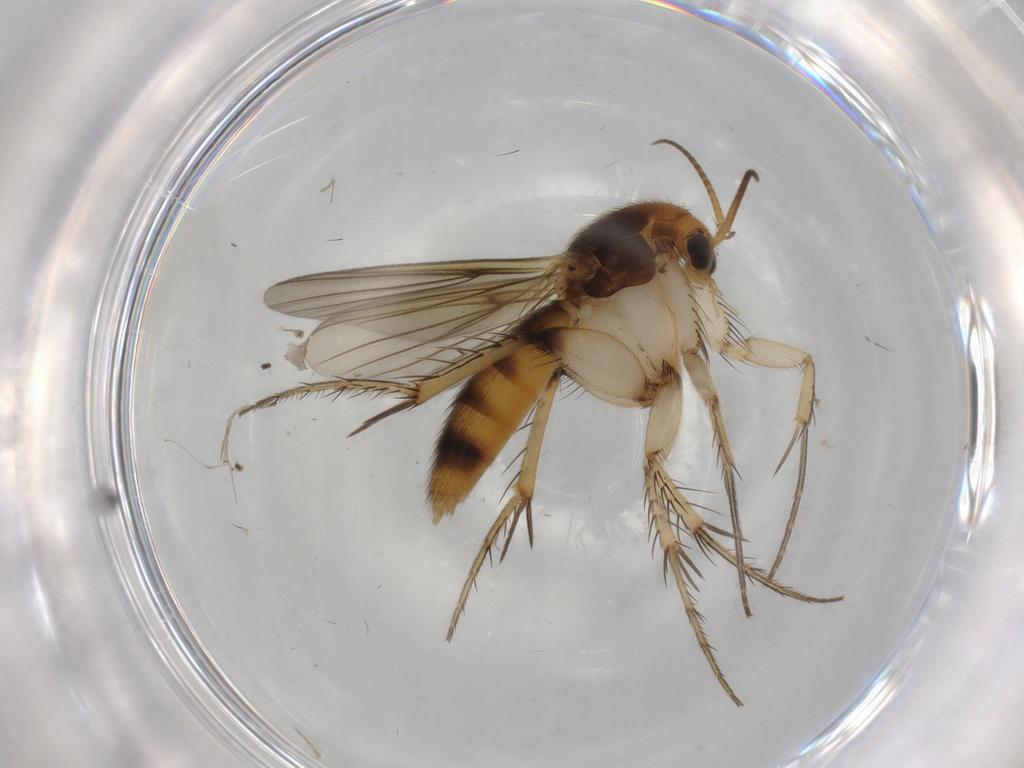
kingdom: Animalia
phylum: Arthropoda
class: Insecta
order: Diptera
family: Mycetophilidae
